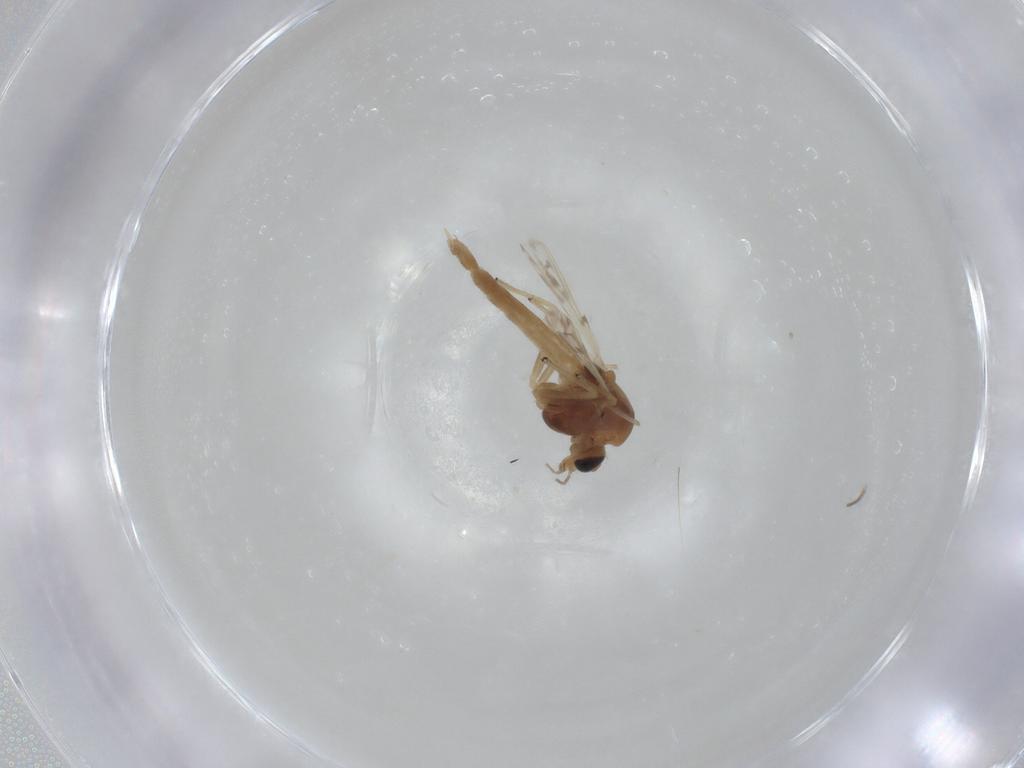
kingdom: Animalia
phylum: Arthropoda
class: Insecta
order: Diptera
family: Chironomidae
